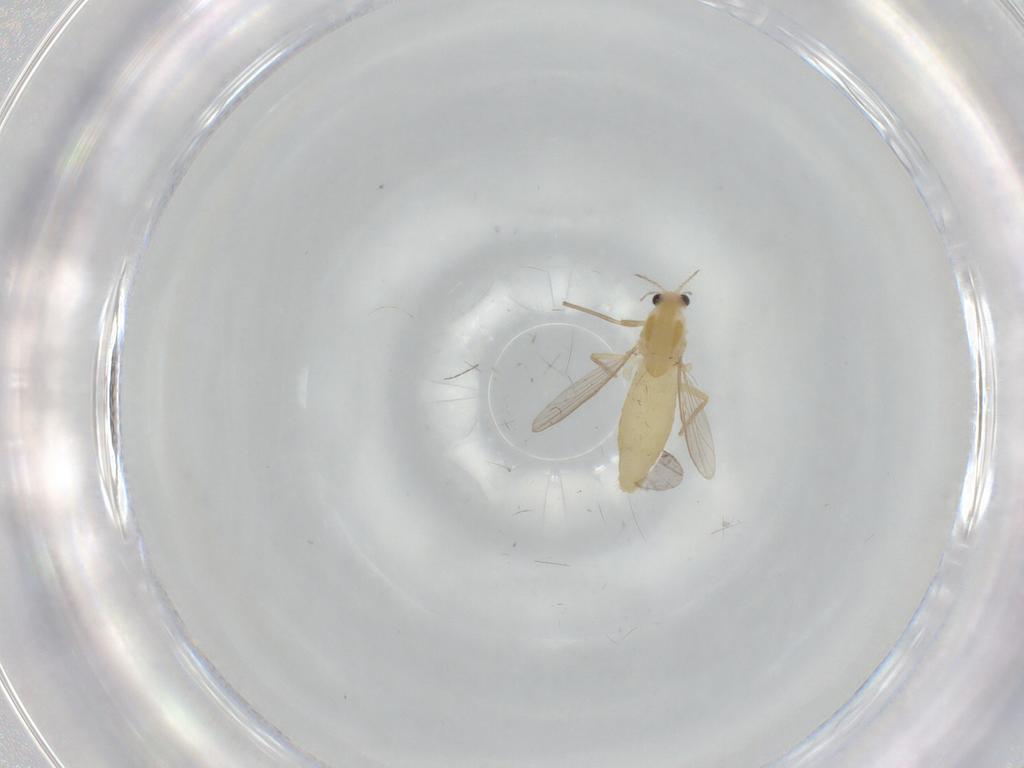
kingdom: Animalia
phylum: Arthropoda
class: Insecta
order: Diptera
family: Chironomidae
